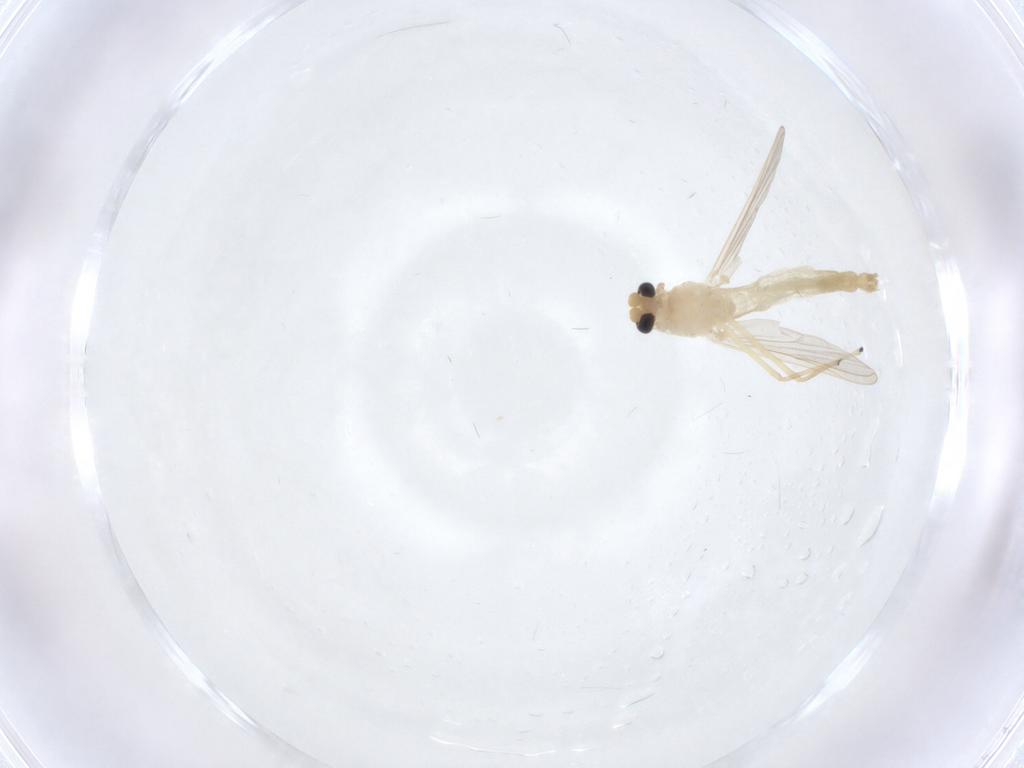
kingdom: Animalia
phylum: Arthropoda
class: Insecta
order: Diptera
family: Chironomidae
